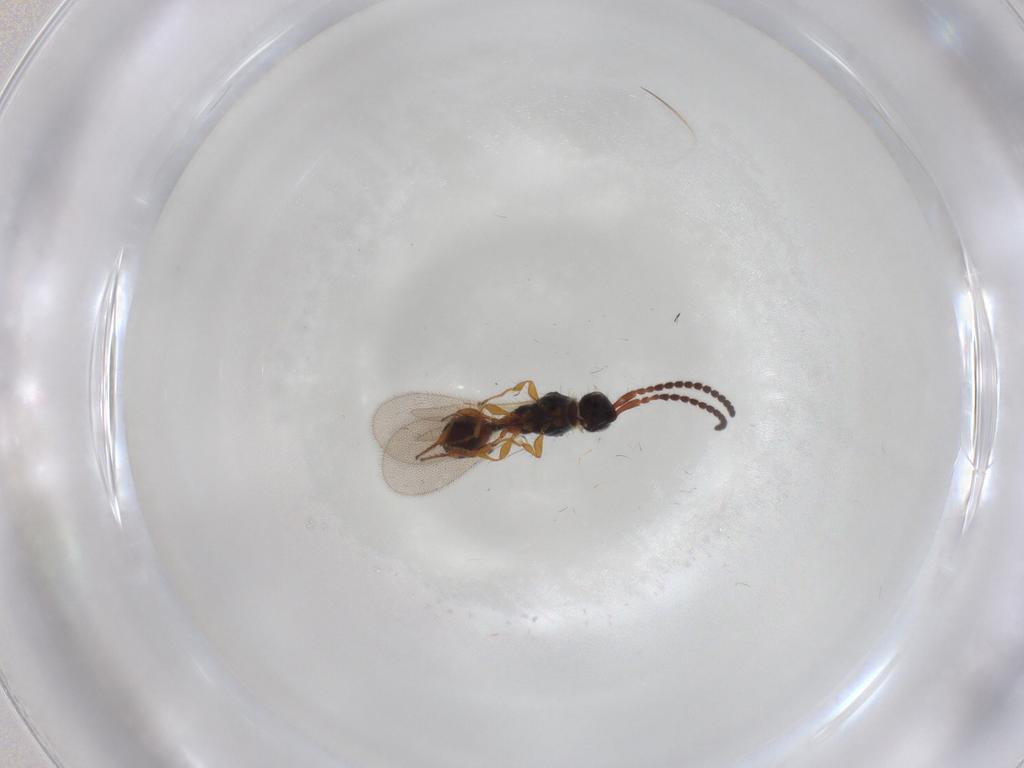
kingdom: Animalia
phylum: Arthropoda
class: Insecta
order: Hymenoptera
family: Diapriidae
